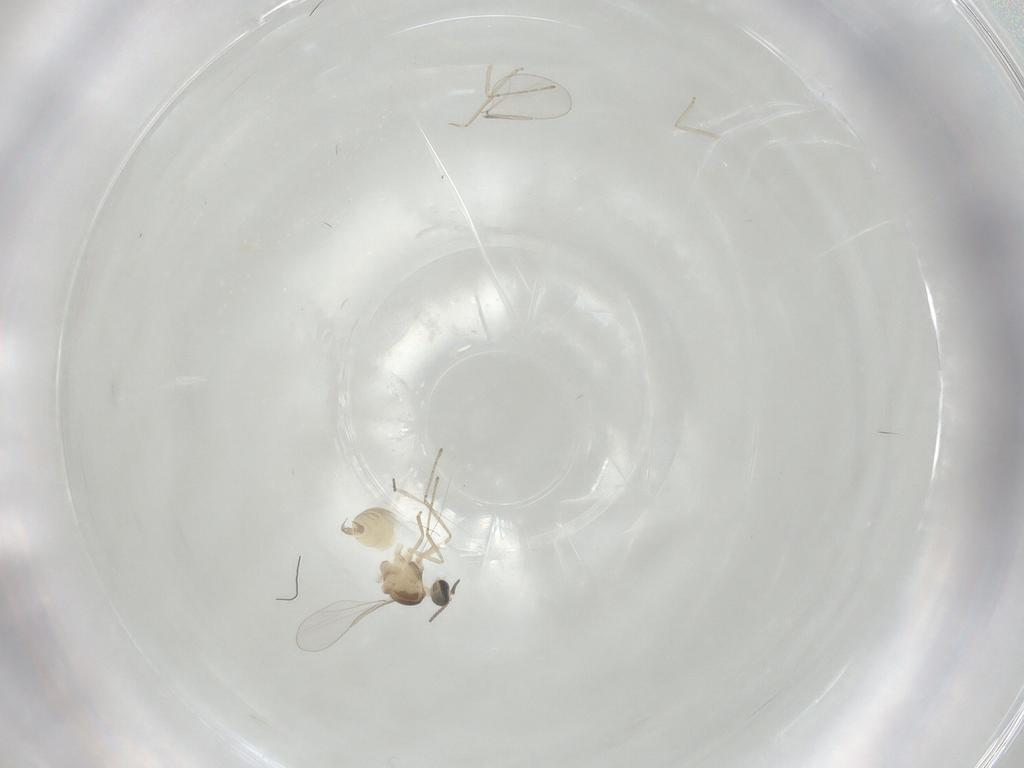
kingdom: Animalia
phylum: Arthropoda
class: Insecta
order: Diptera
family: Cecidomyiidae
